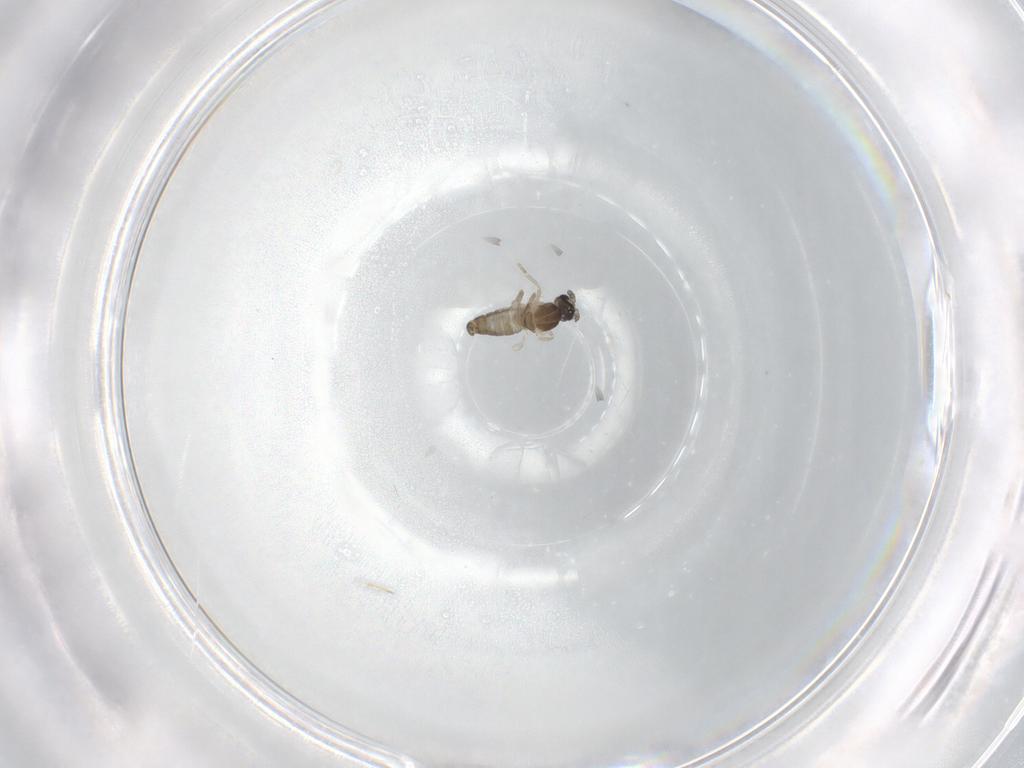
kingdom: Animalia
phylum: Arthropoda
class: Insecta
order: Diptera
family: Cecidomyiidae
